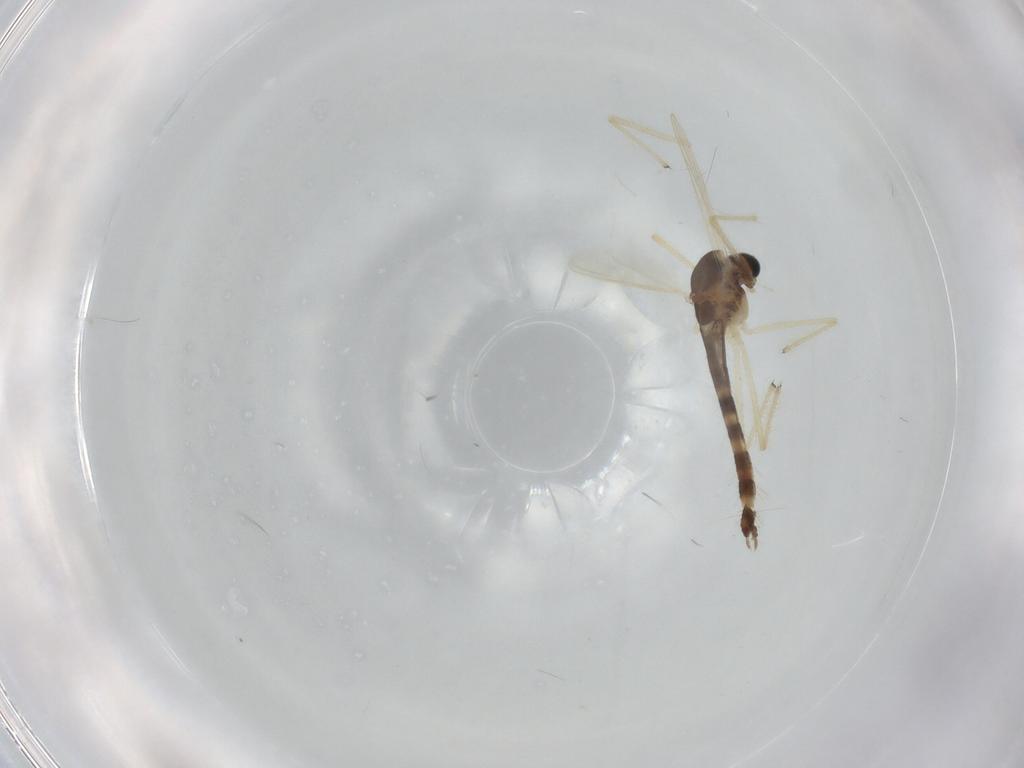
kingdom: Animalia
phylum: Arthropoda
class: Insecta
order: Diptera
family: Chironomidae
